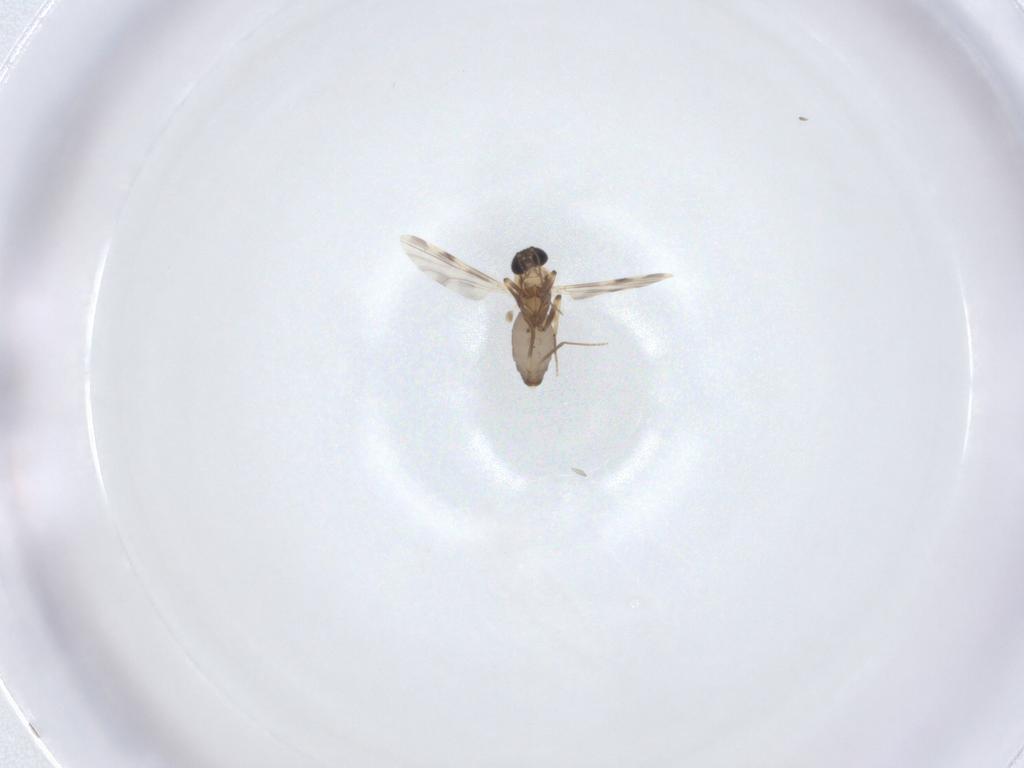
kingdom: Animalia
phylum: Arthropoda
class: Insecta
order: Diptera
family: Ceratopogonidae
